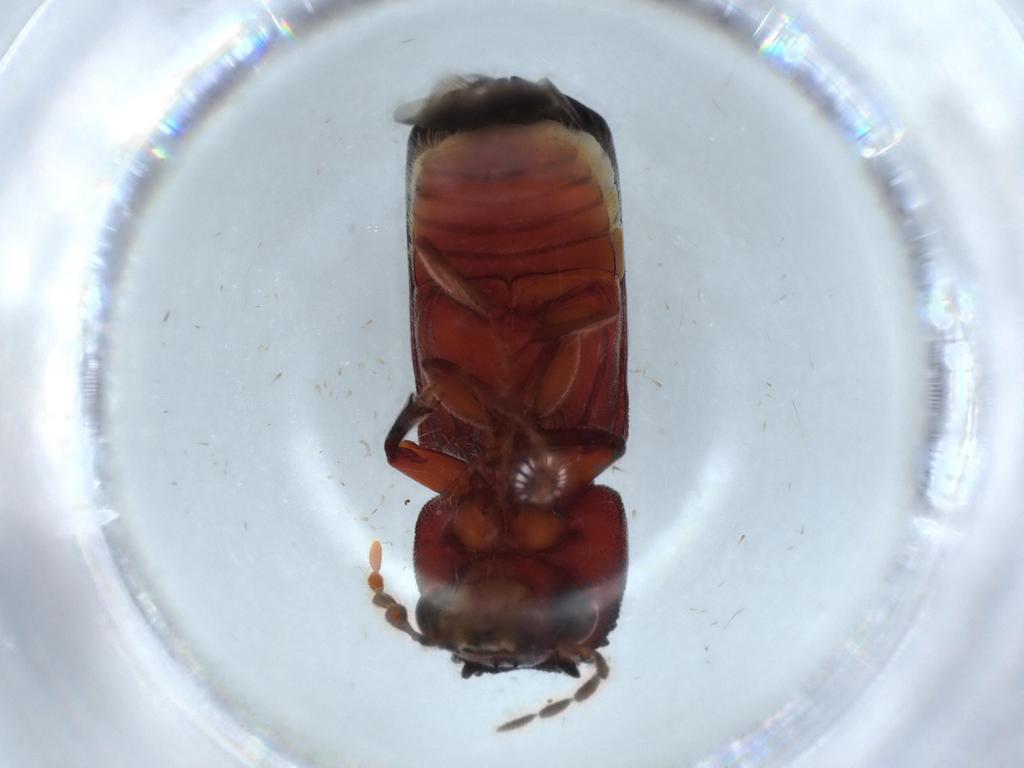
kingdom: Animalia
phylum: Arthropoda
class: Insecta
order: Coleoptera
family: Bostrichidae
